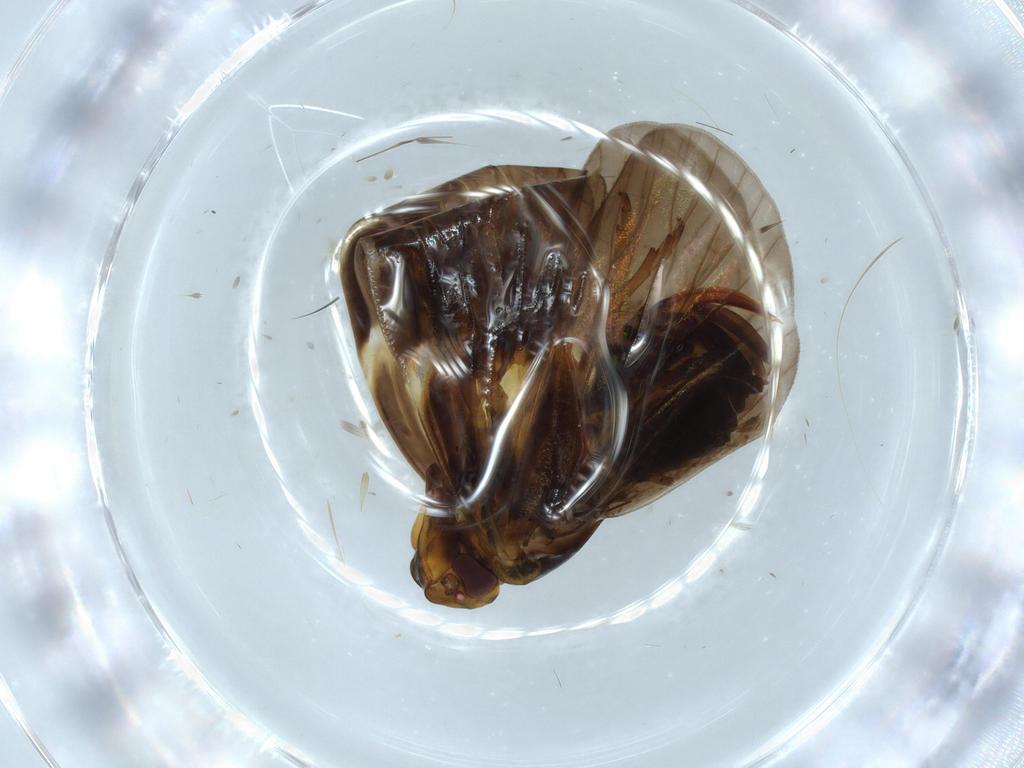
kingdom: Animalia
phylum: Arthropoda
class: Insecta
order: Hemiptera
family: Cixiidae
